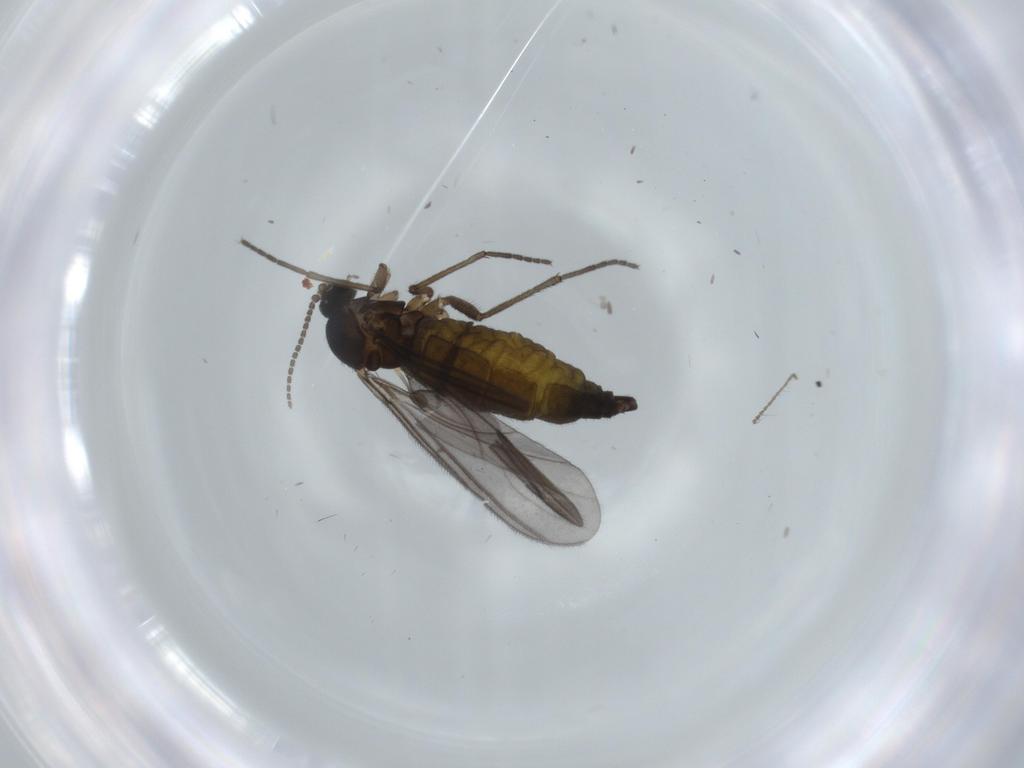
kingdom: Animalia
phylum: Arthropoda
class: Insecta
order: Diptera
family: Sciaridae
